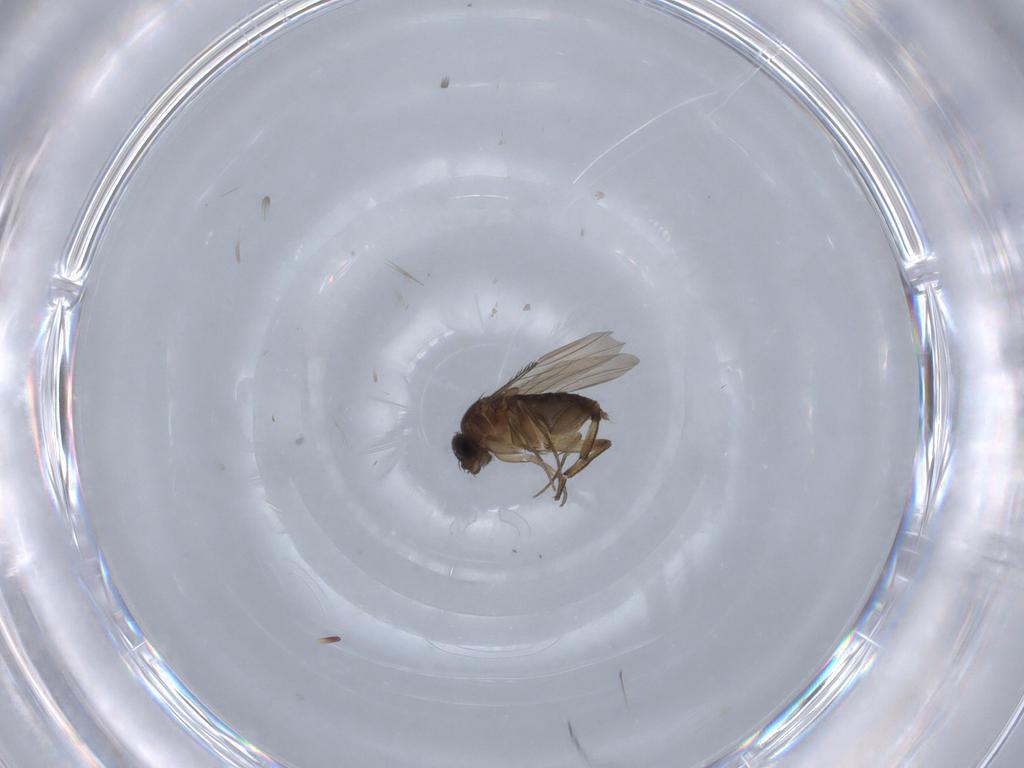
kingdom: Animalia
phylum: Arthropoda
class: Insecta
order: Diptera
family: Phoridae
